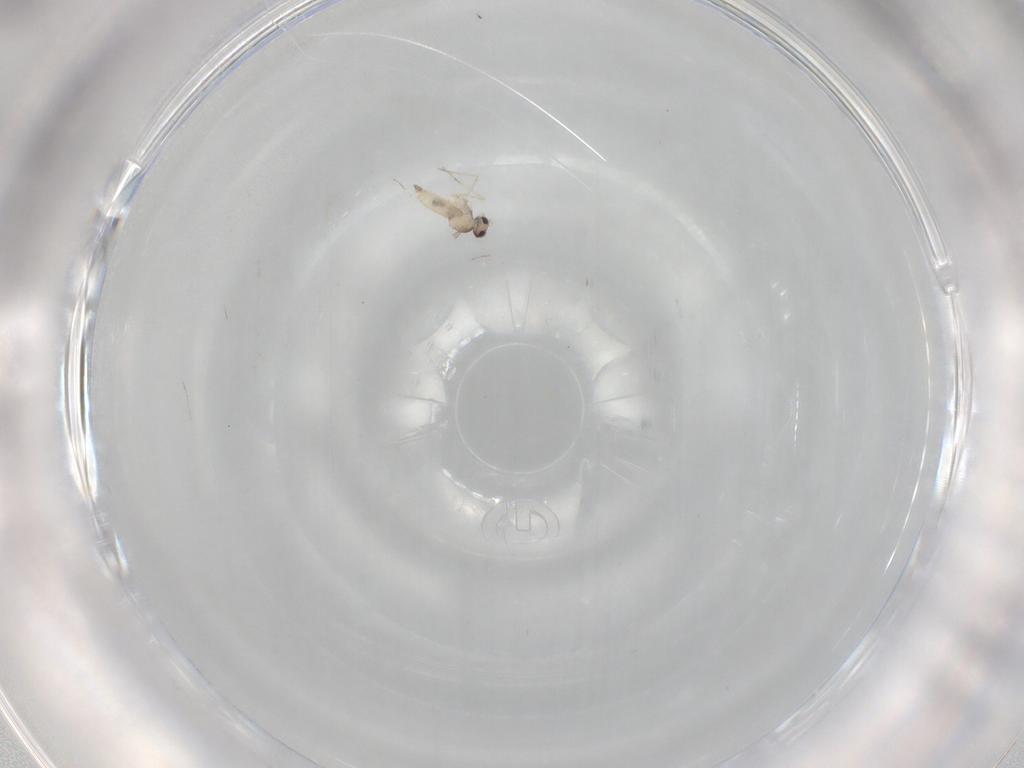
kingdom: Animalia
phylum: Arthropoda
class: Insecta
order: Diptera
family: Cecidomyiidae
